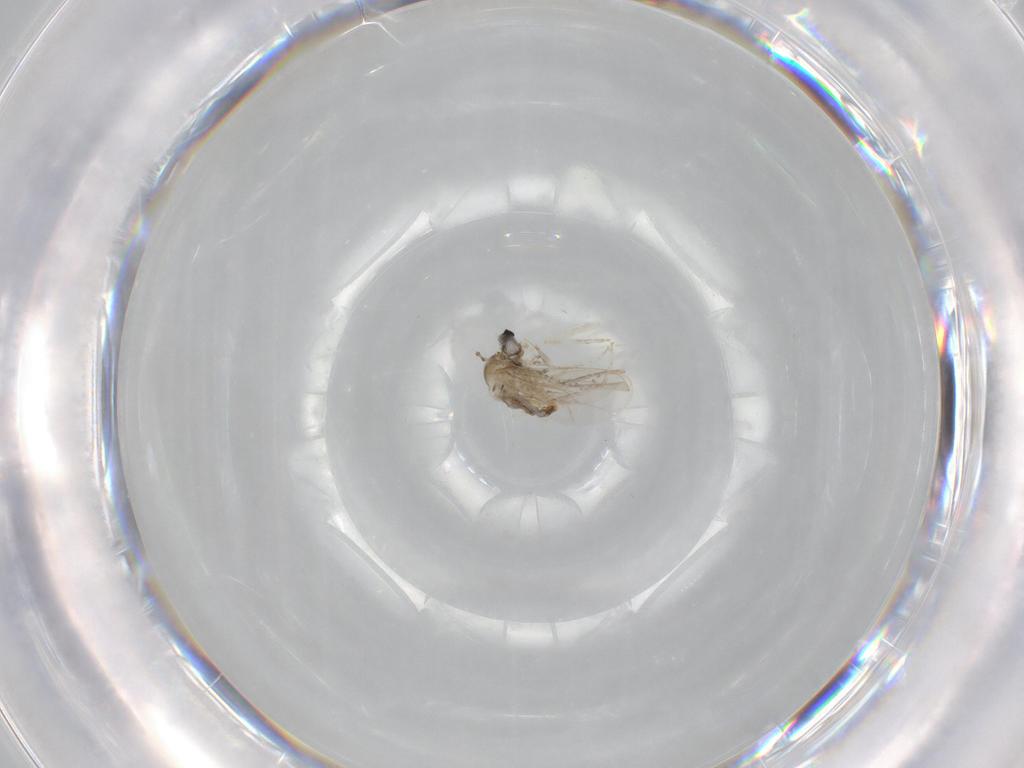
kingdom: Animalia
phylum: Arthropoda
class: Insecta
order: Diptera
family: Cecidomyiidae
